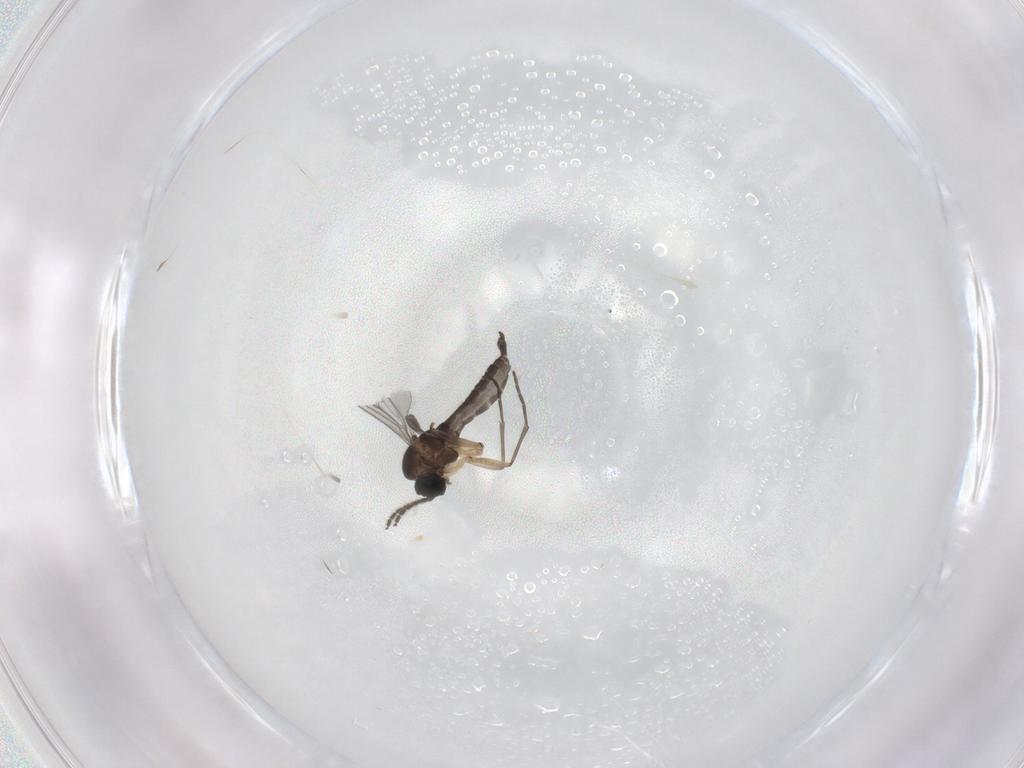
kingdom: Animalia
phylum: Arthropoda
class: Insecta
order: Diptera
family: Sciaridae
